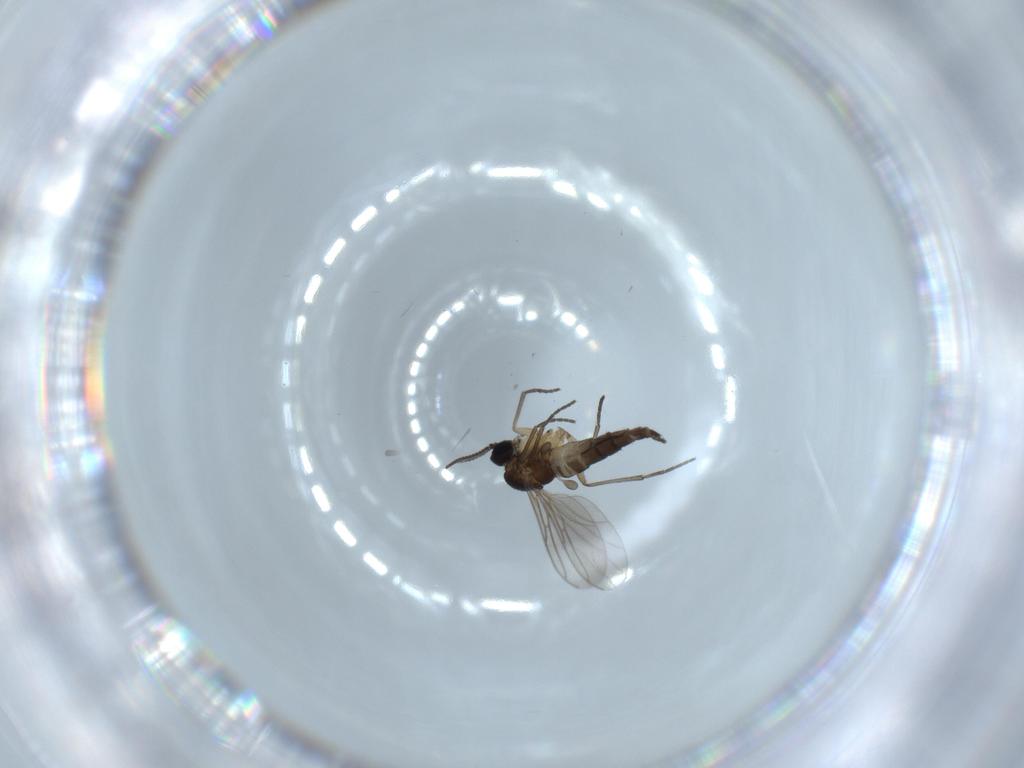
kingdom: Animalia
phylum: Arthropoda
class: Insecta
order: Diptera
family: Sciaridae
